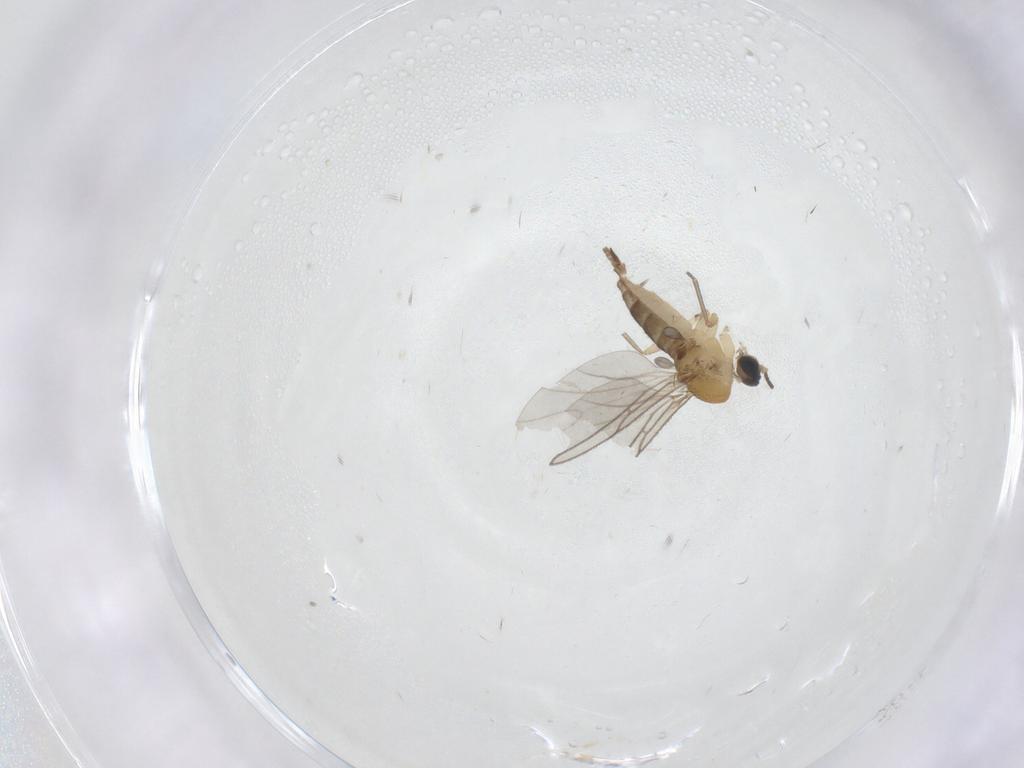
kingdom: Animalia
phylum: Arthropoda
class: Insecta
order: Diptera
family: Sciaridae
